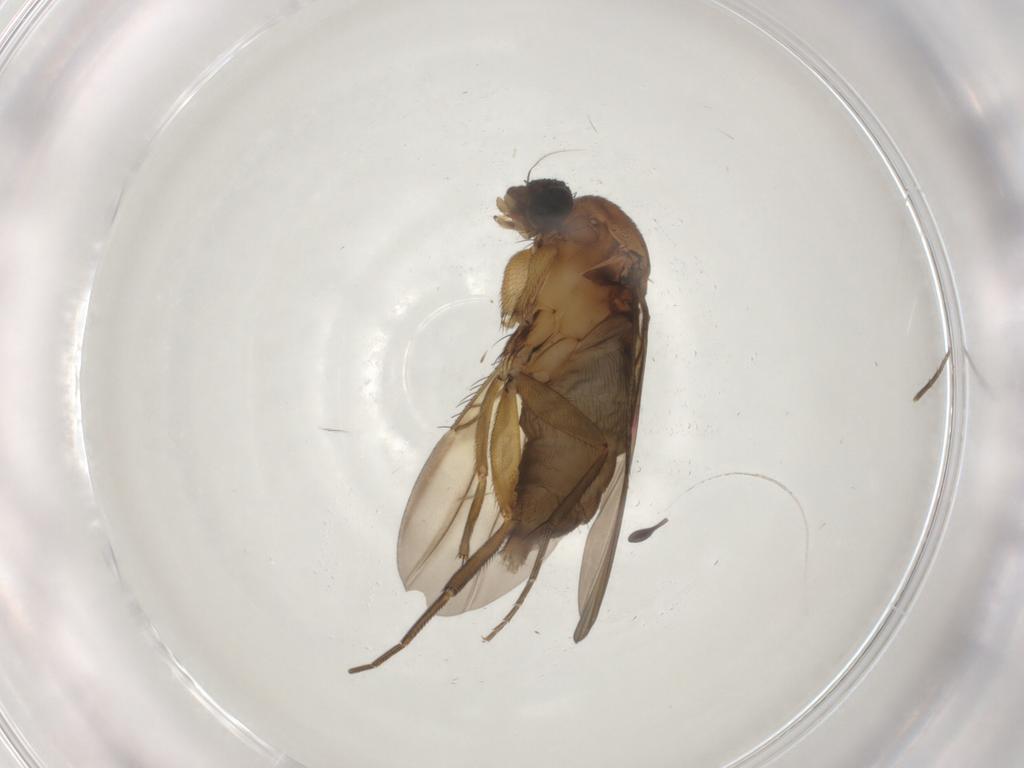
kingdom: Animalia
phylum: Arthropoda
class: Insecta
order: Diptera
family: Phoridae
